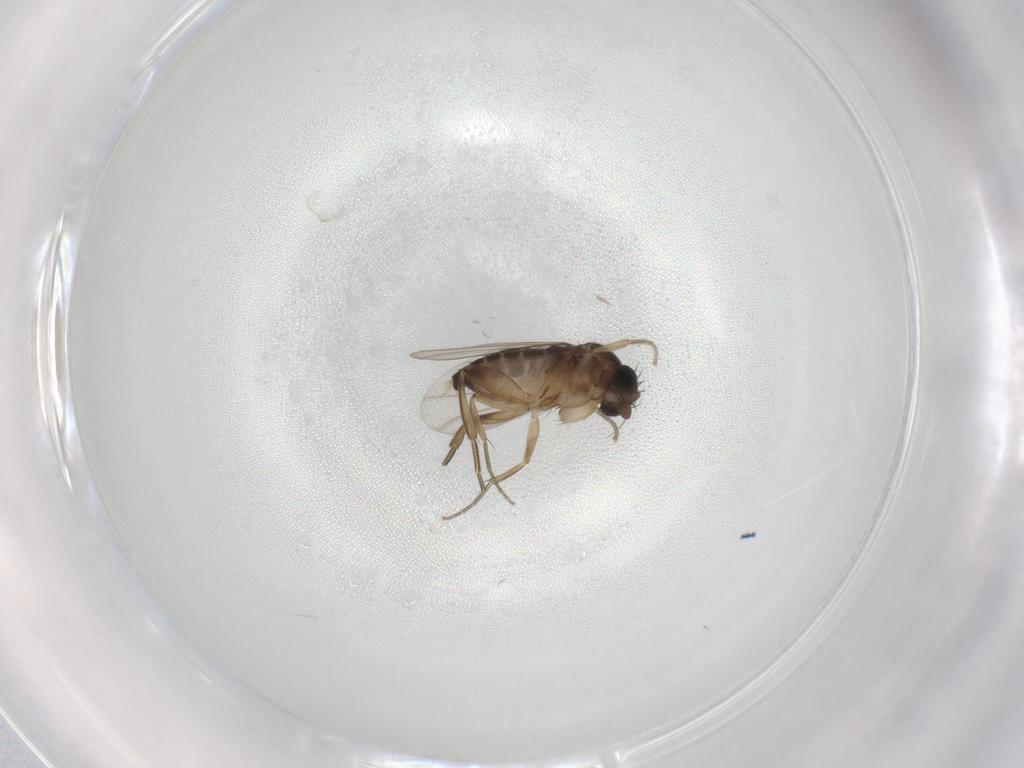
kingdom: Animalia
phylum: Arthropoda
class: Insecta
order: Diptera
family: Phoridae
